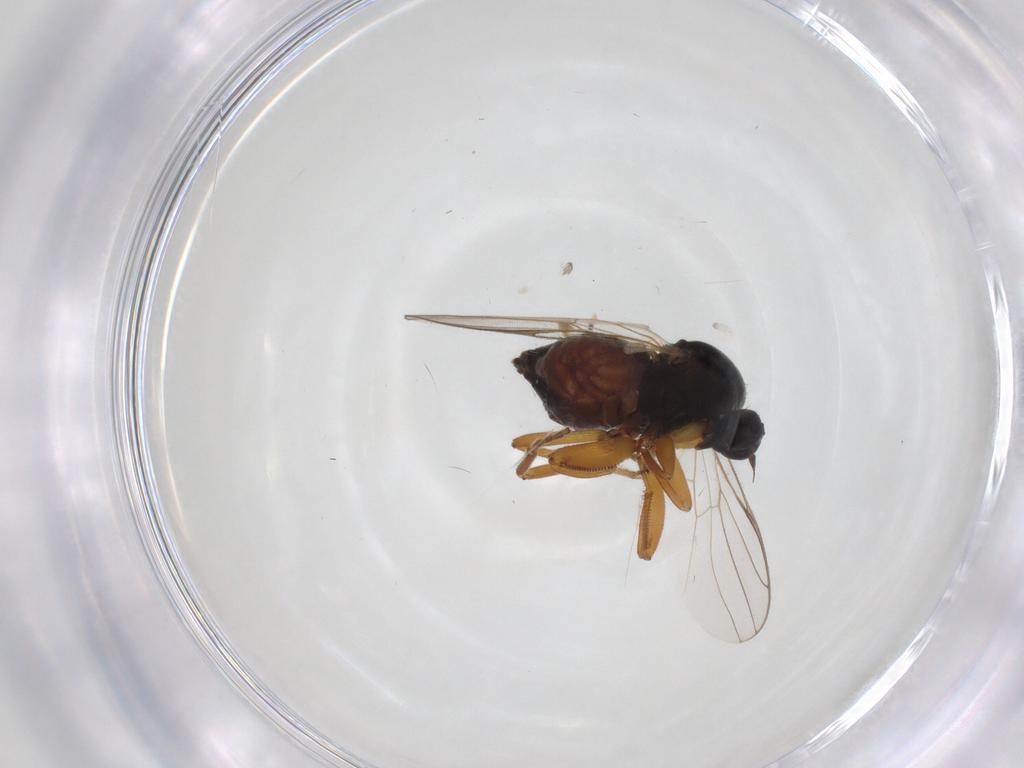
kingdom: Animalia
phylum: Arthropoda
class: Insecta
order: Diptera
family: Hybotidae
